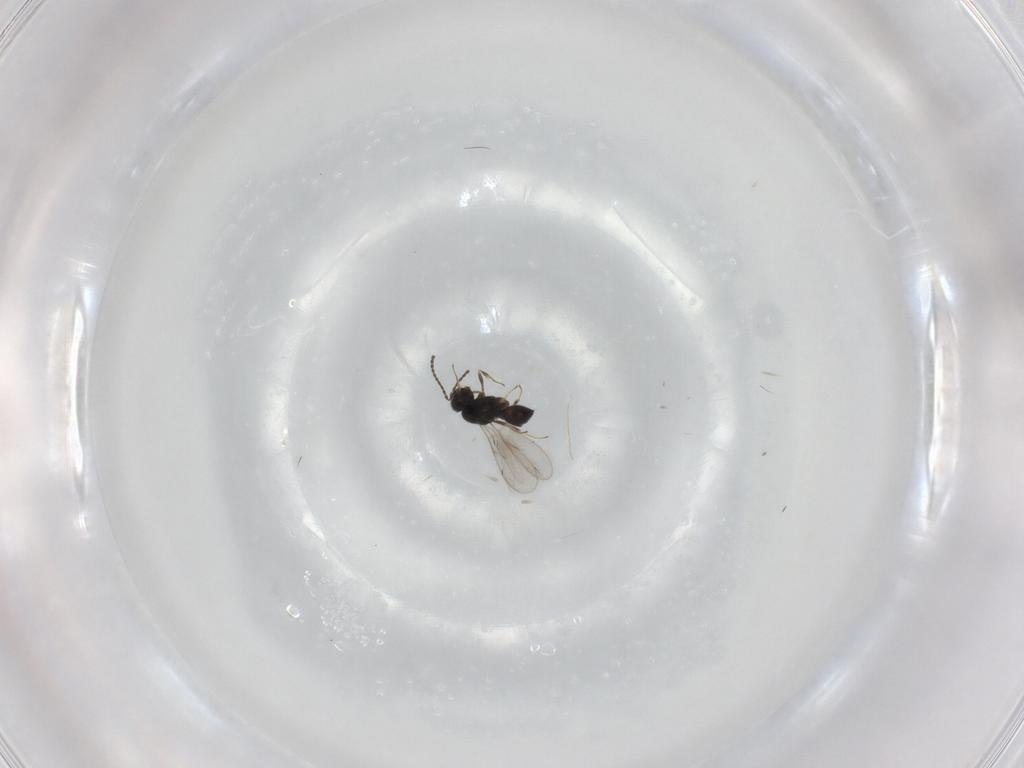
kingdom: Animalia
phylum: Arthropoda
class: Insecta
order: Hymenoptera
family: Scelionidae
